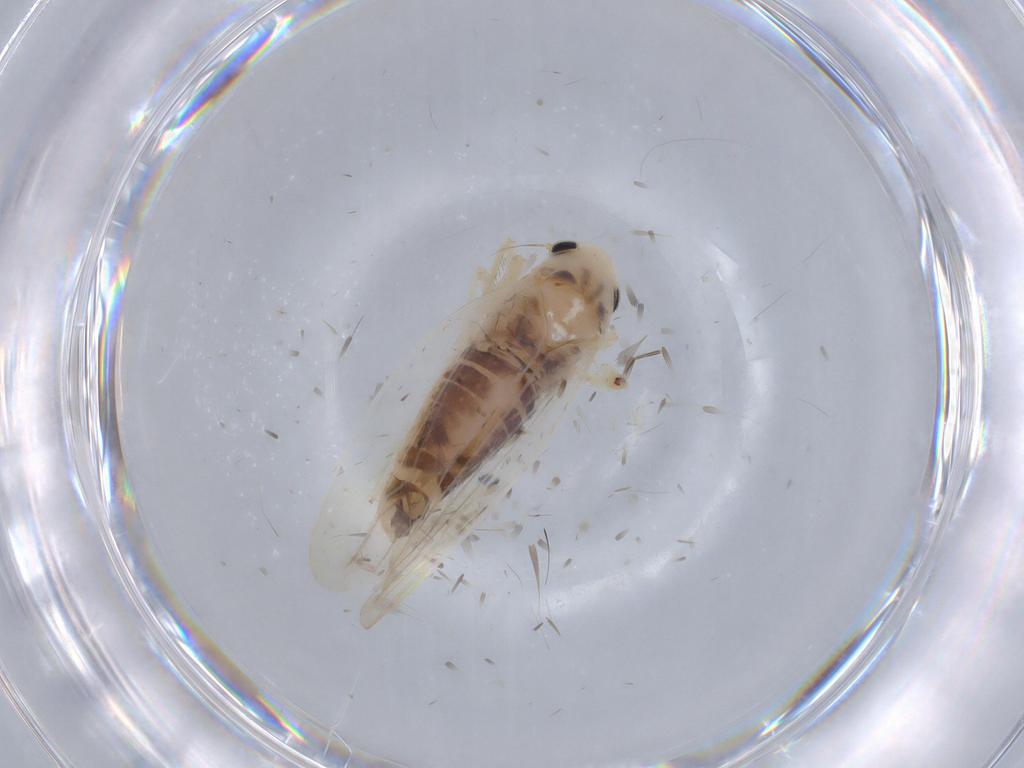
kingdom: Animalia
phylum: Arthropoda
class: Insecta
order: Hemiptera
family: Cicadellidae
